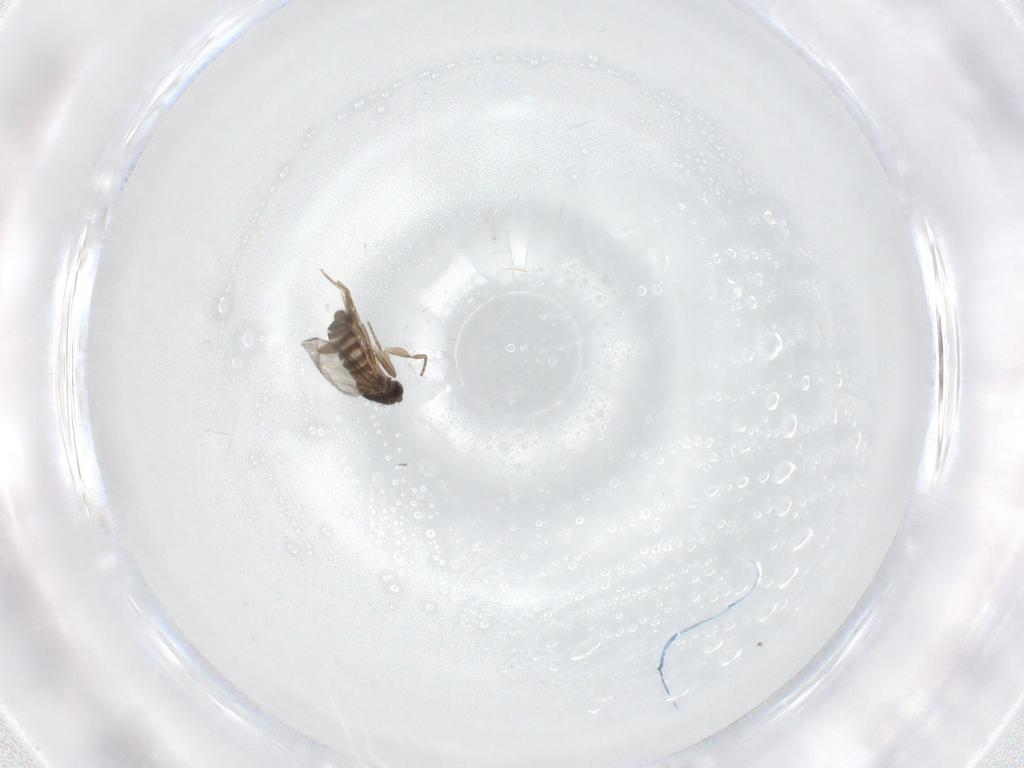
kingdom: Animalia
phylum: Arthropoda
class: Insecta
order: Diptera
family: Sciaridae
